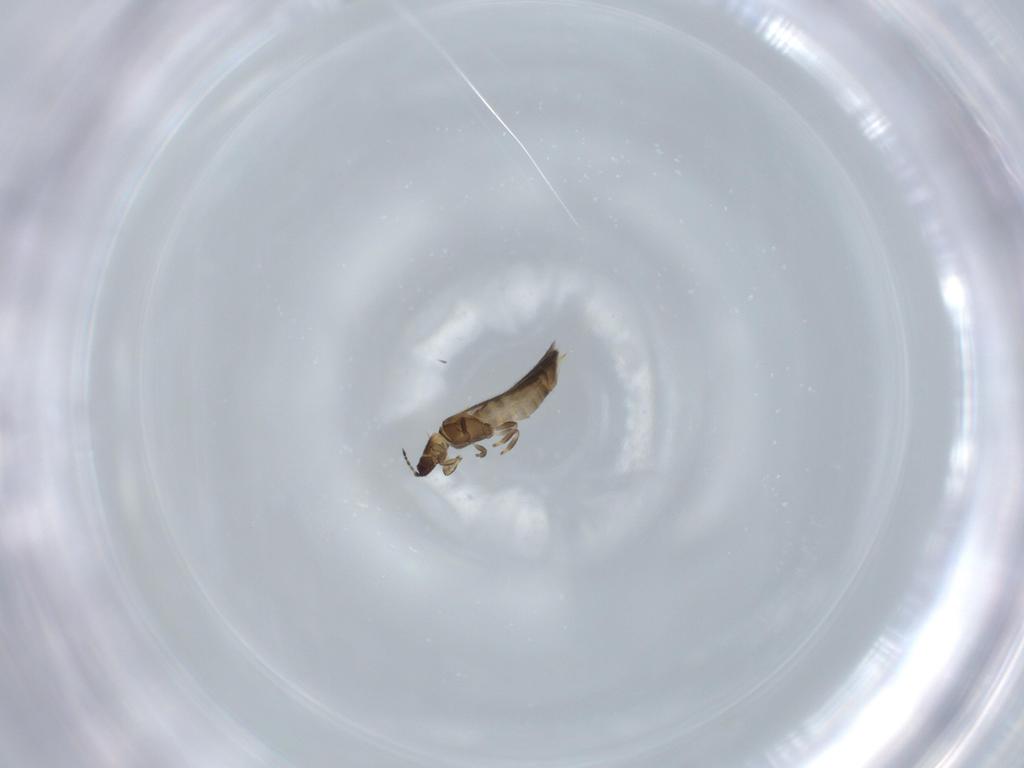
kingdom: Animalia
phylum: Arthropoda
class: Insecta
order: Thysanoptera
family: Thripidae
